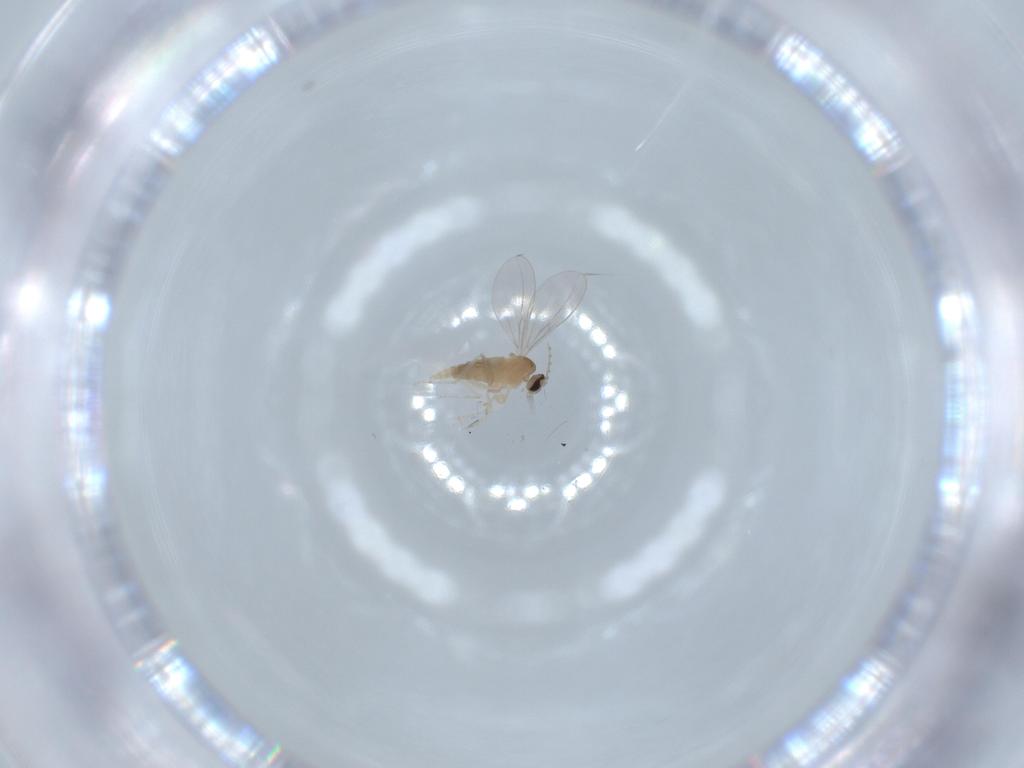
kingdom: Animalia
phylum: Arthropoda
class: Insecta
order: Diptera
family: Cecidomyiidae
